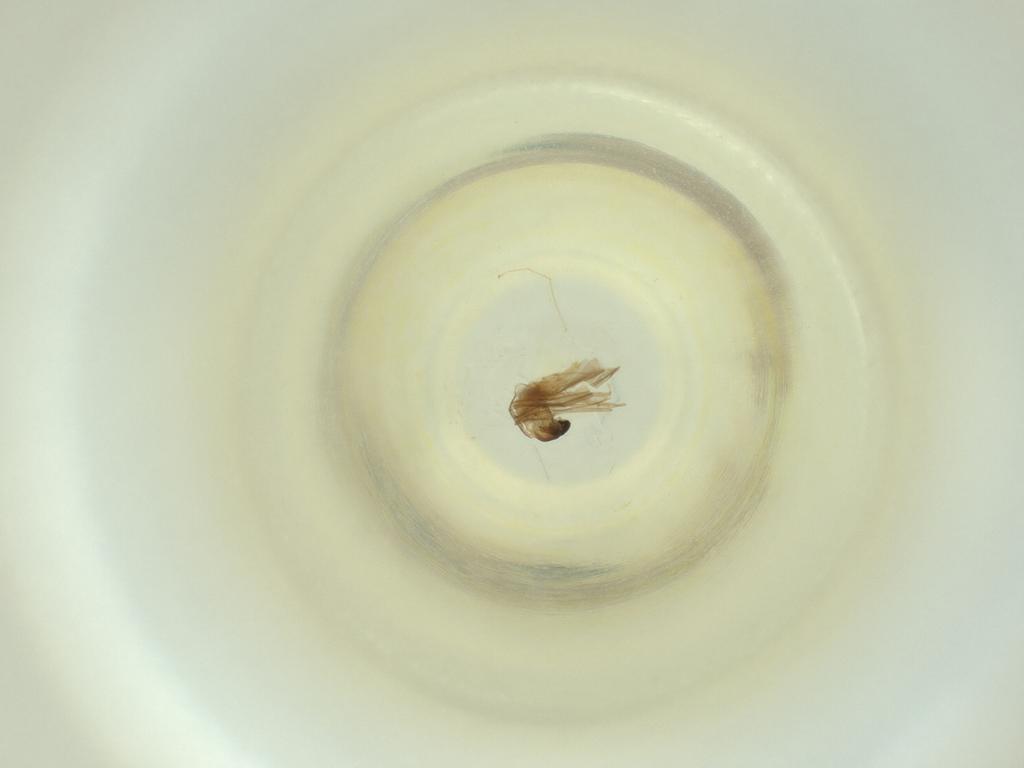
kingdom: Animalia
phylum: Arthropoda
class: Insecta
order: Diptera
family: Cecidomyiidae
